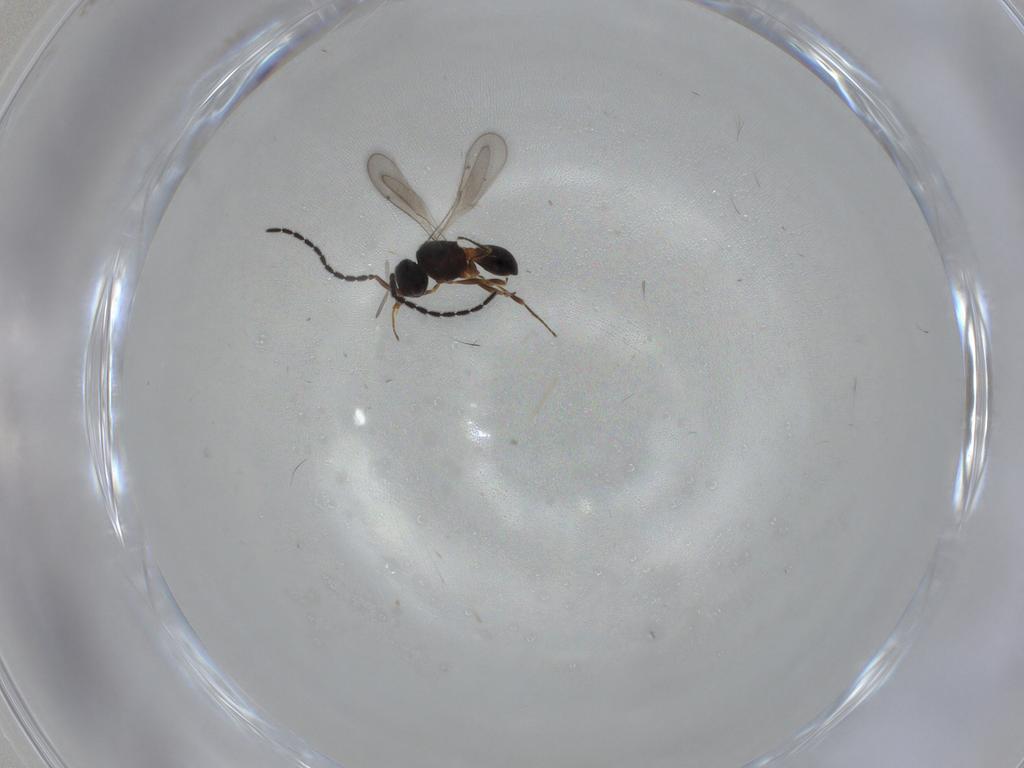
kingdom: Animalia
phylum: Arthropoda
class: Insecta
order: Hymenoptera
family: Scelionidae
